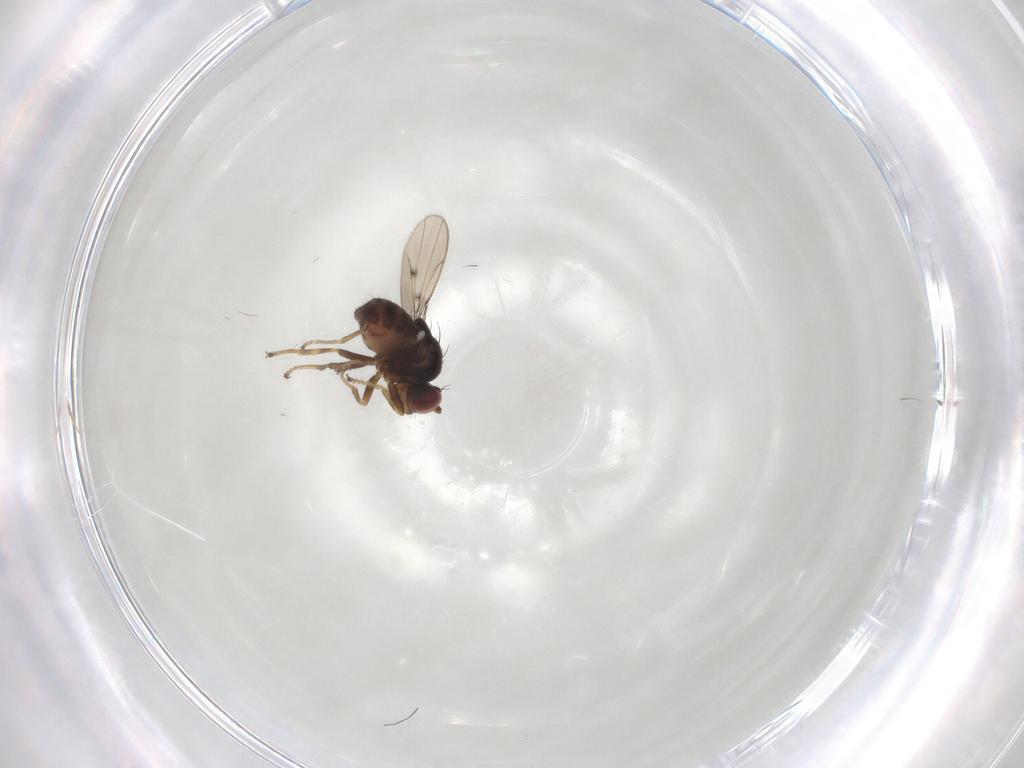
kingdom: Animalia
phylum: Arthropoda
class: Insecta
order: Diptera
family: Ephydridae
